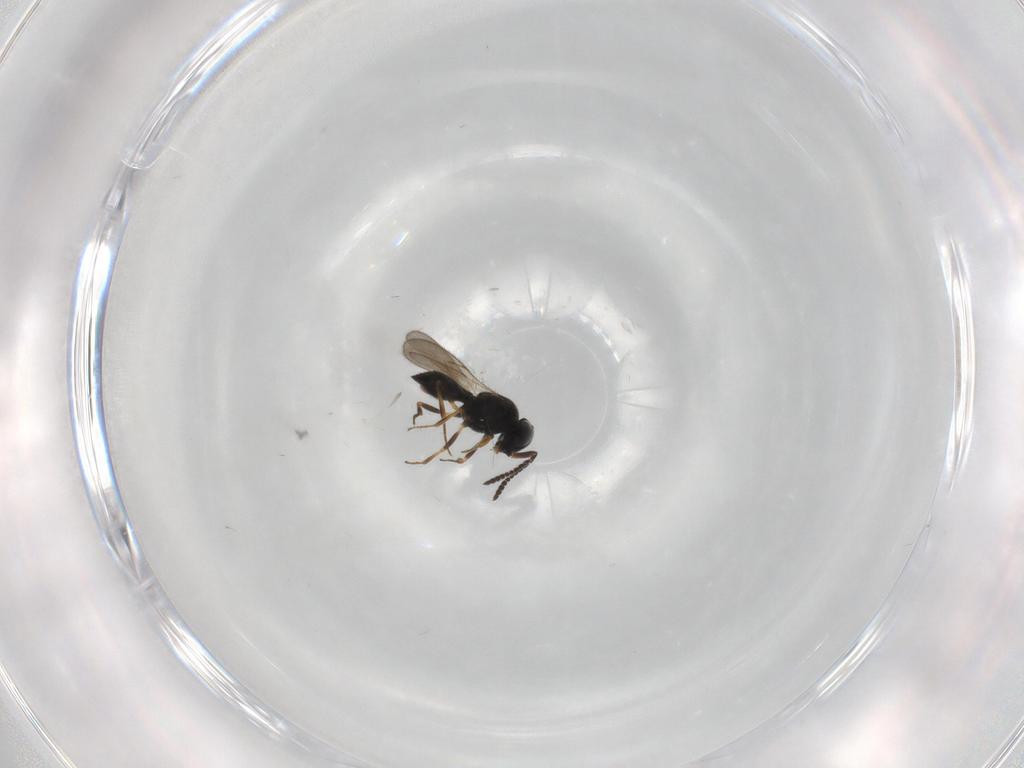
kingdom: Animalia
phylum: Arthropoda
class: Insecta
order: Hymenoptera
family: Scelionidae
